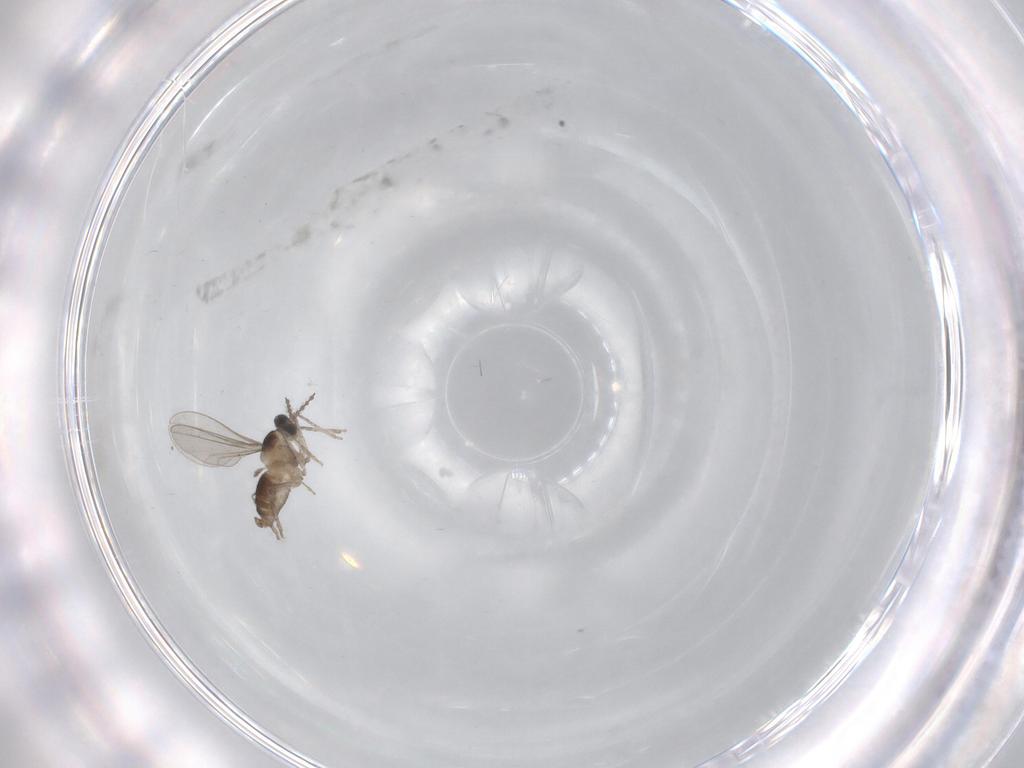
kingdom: Animalia
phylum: Arthropoda
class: Insecta
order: Diptera
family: Cecidomyiidae
